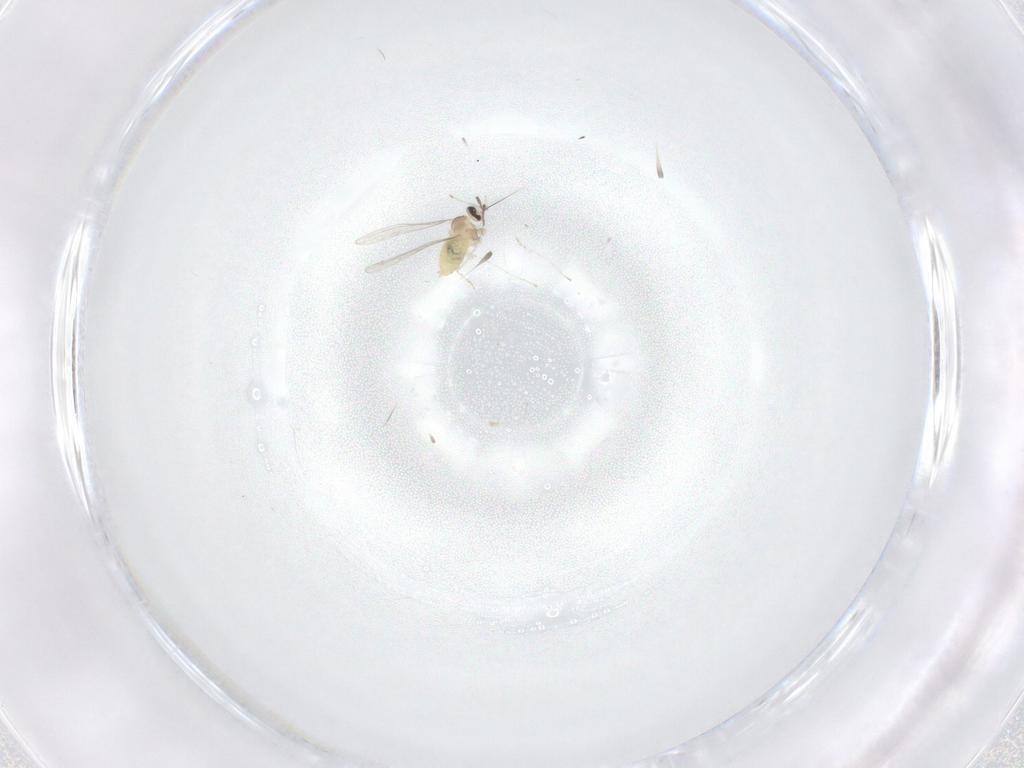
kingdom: Animalia
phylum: Arthropoda
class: Insecta
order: Diptera
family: Cecidomyiidae
